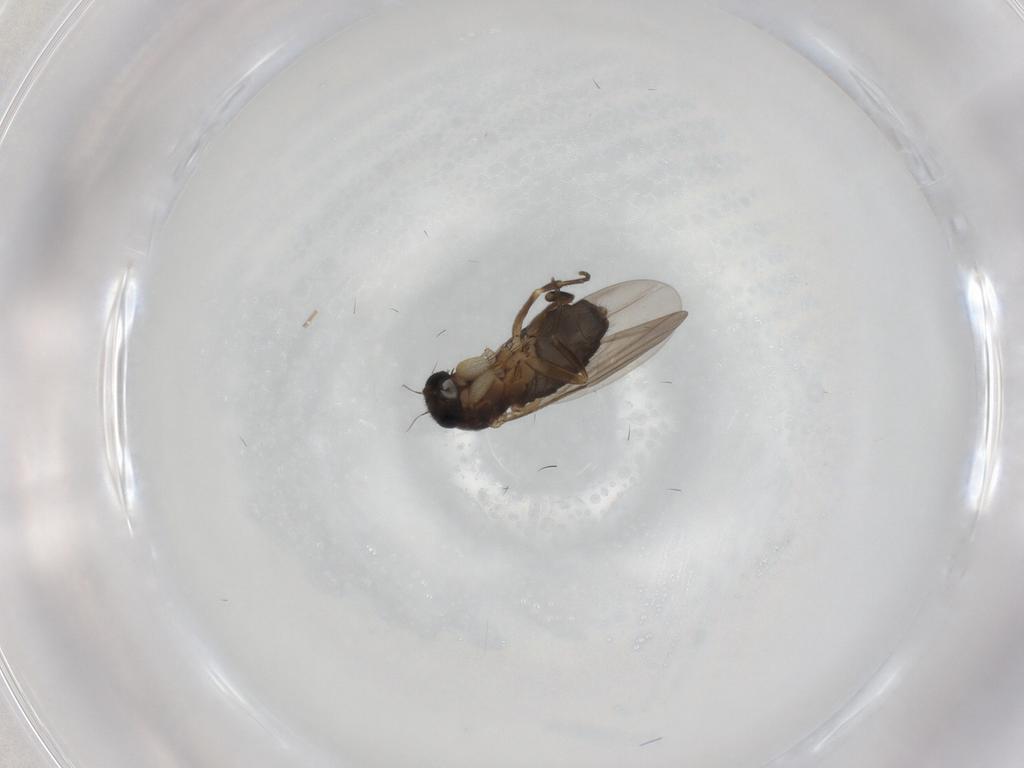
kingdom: Animalia
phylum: Arthropoda
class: Insecta
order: Diptera
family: Phoridae
